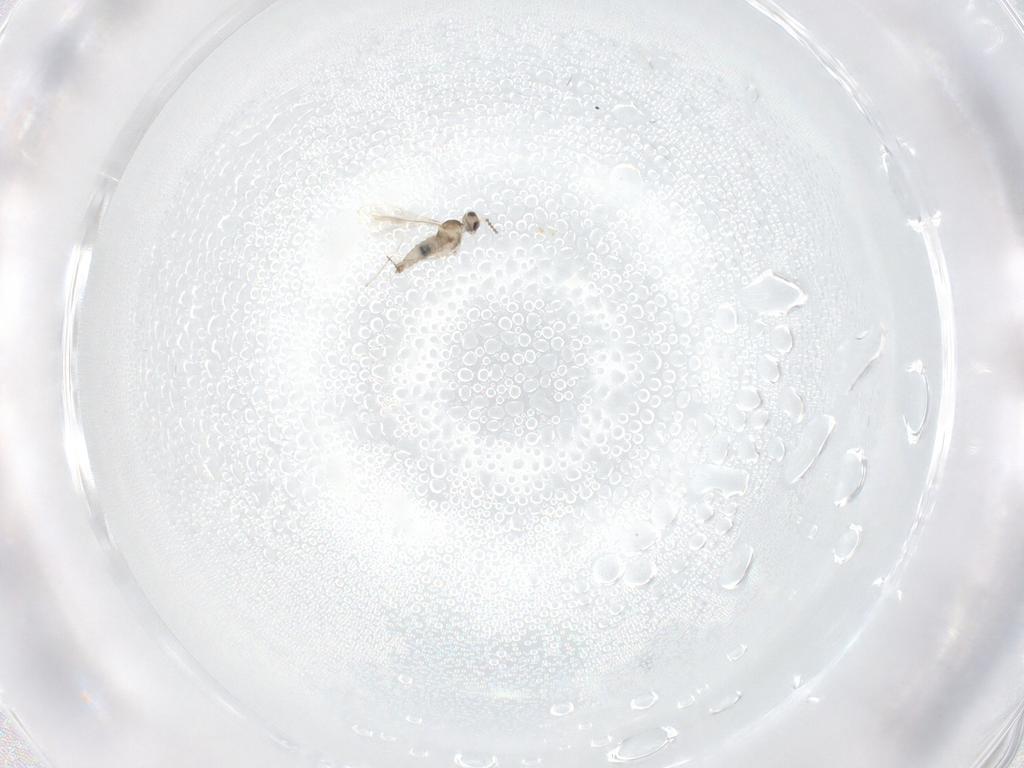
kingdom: Animalia
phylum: Arthropoda
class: Insecta
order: Diptera
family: Cecidomyiidae
